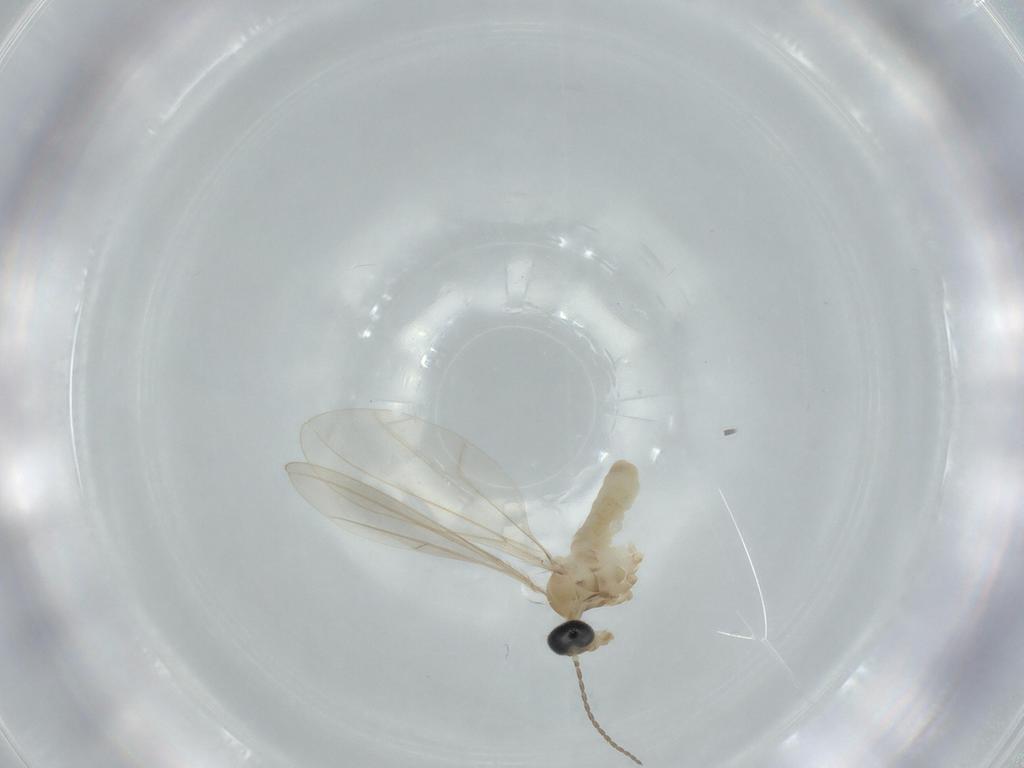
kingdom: Animalia
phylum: Arthropoda
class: Insecta
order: Diptera
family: Cecidomyiidae
